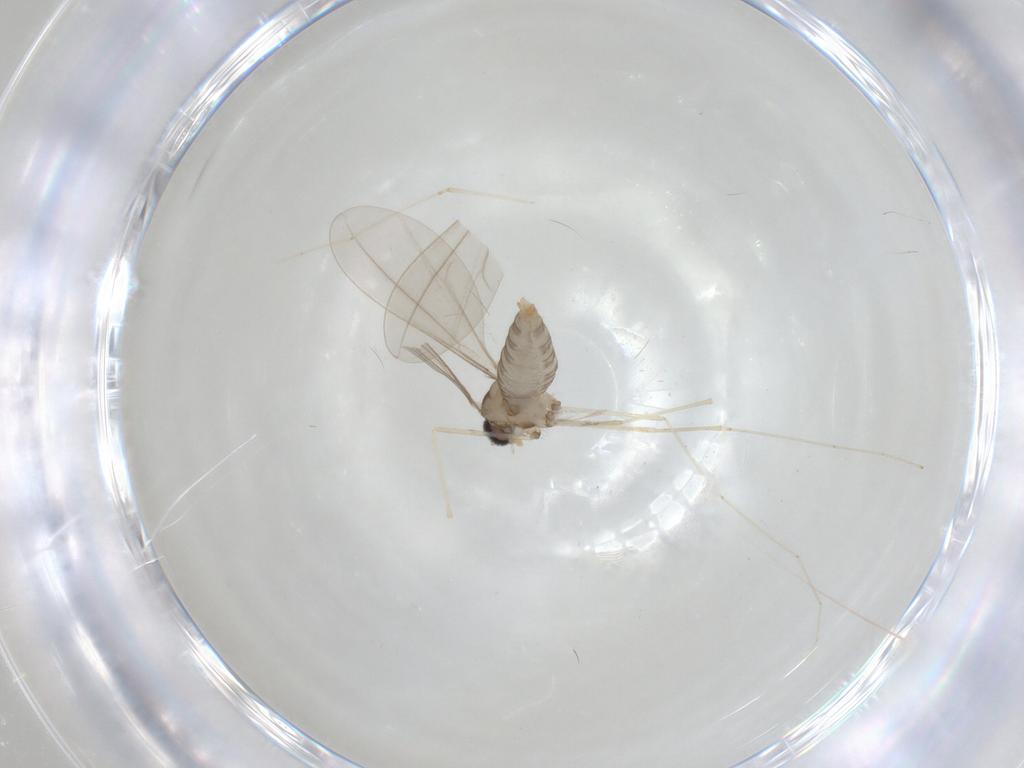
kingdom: Animalia
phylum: Arthropoda
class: Insecta
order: Diptera
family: Cecidomyiidae
